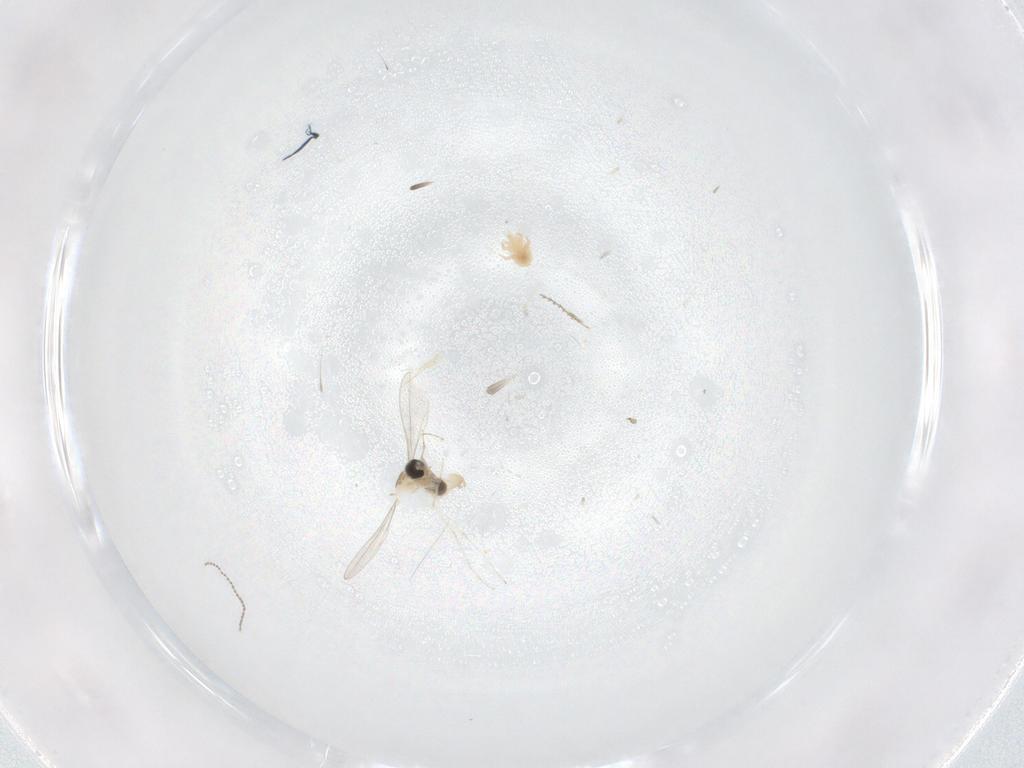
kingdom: Animalia
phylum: Arthropoda
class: Insecta
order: Diptera
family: Cecidomyiidae
